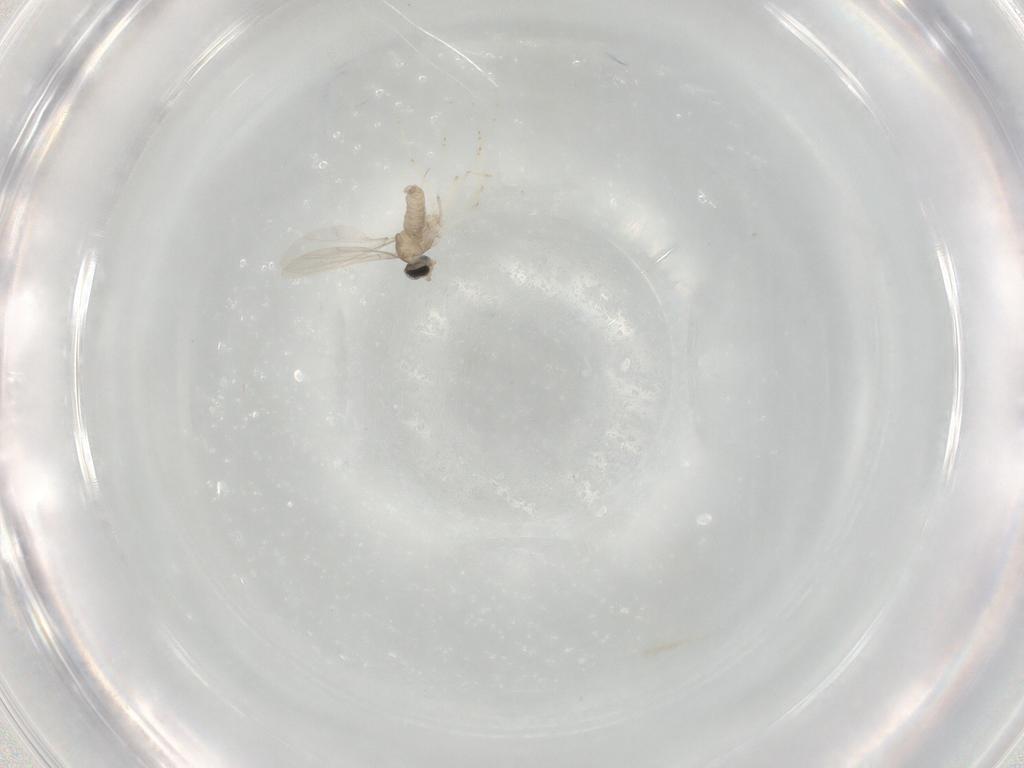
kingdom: Animalia
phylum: Arthropoda
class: Insecta
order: Diptera
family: Cecidomyiidae
